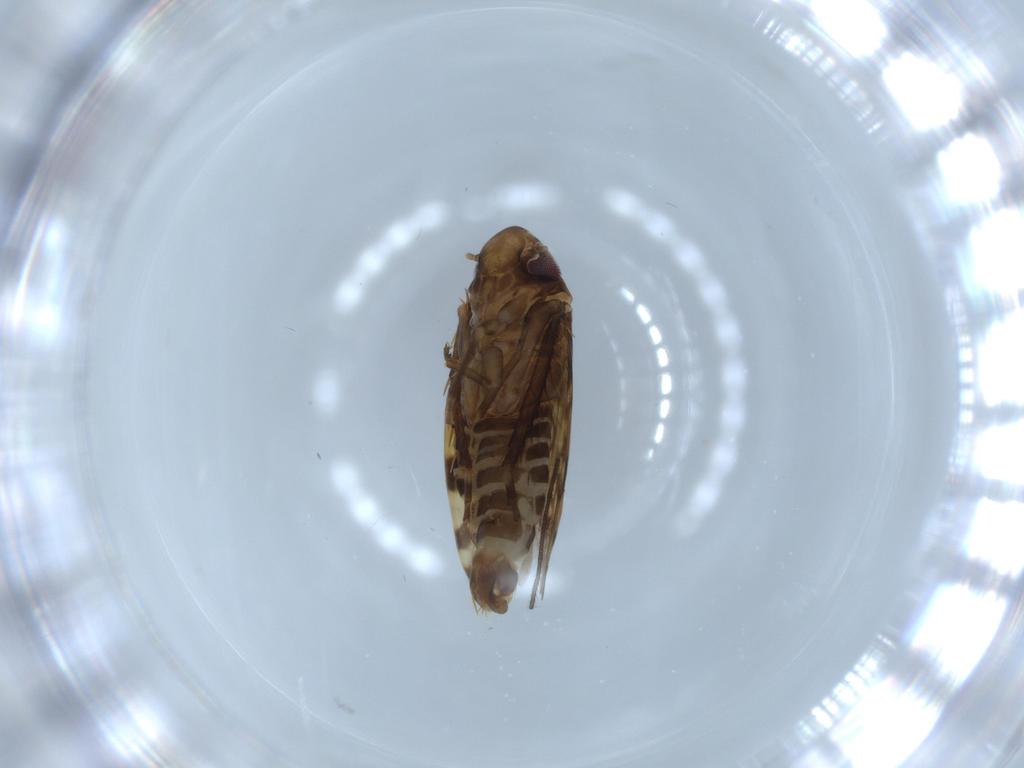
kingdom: Animalia
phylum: Arthropoda
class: Insecta
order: Hemiptera
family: Cicadellidae
